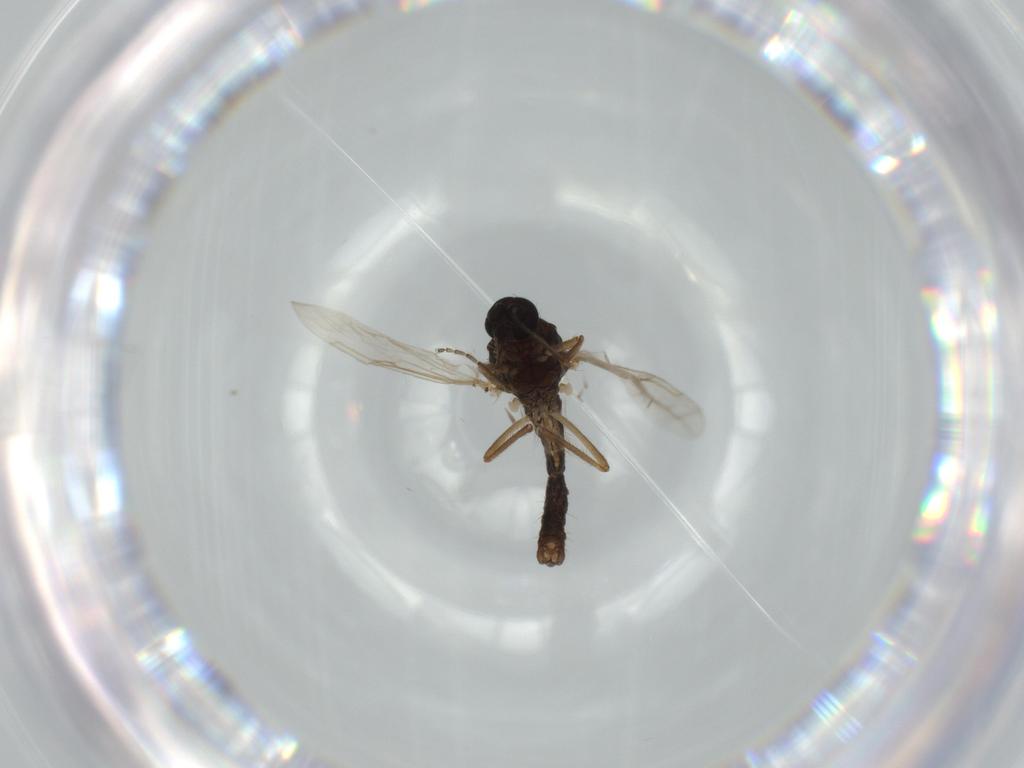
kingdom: Animalia
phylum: Arthropoda
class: Insecta
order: Diptera
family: Ceratopogonidae
